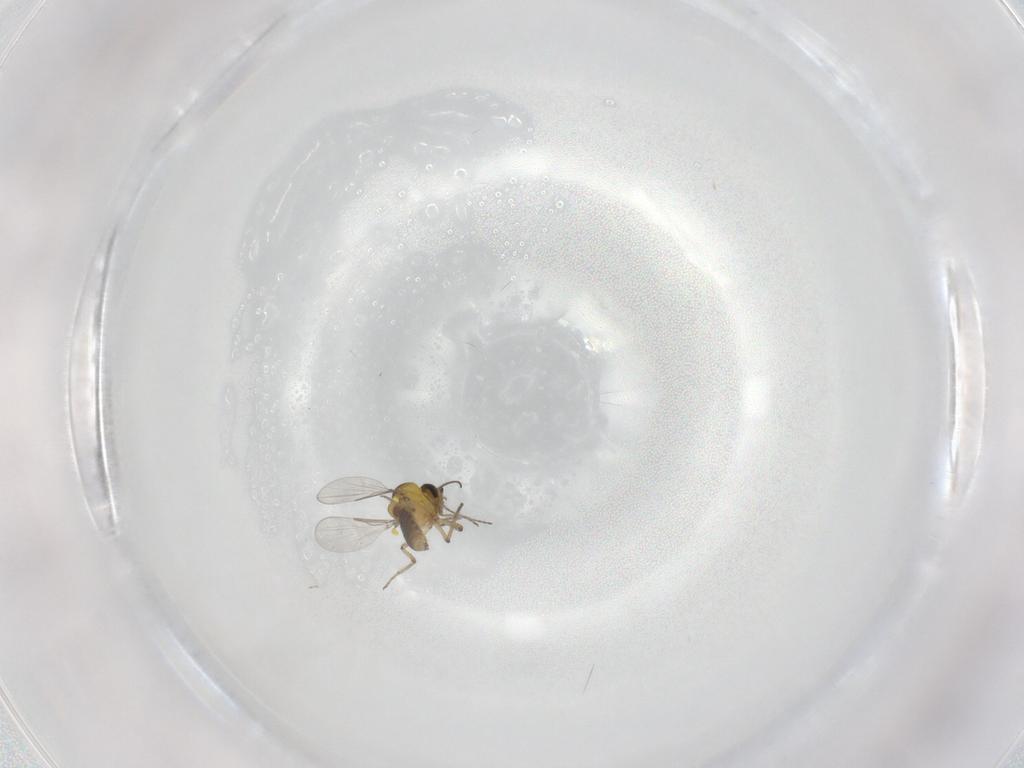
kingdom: Animalia
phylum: Arthropoda
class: Insecta
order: Diptera
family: Ceratopogonidae
